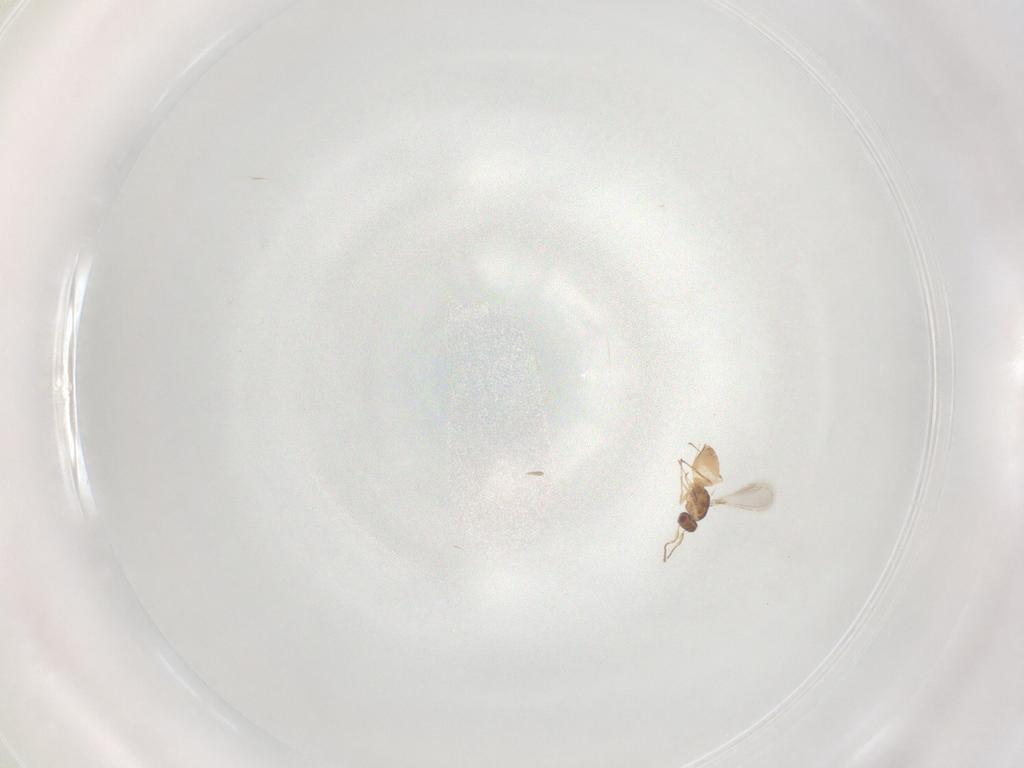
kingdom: Animalia
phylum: Arthropoda
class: Insecta
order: Hymenoptera
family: Mymaridae
